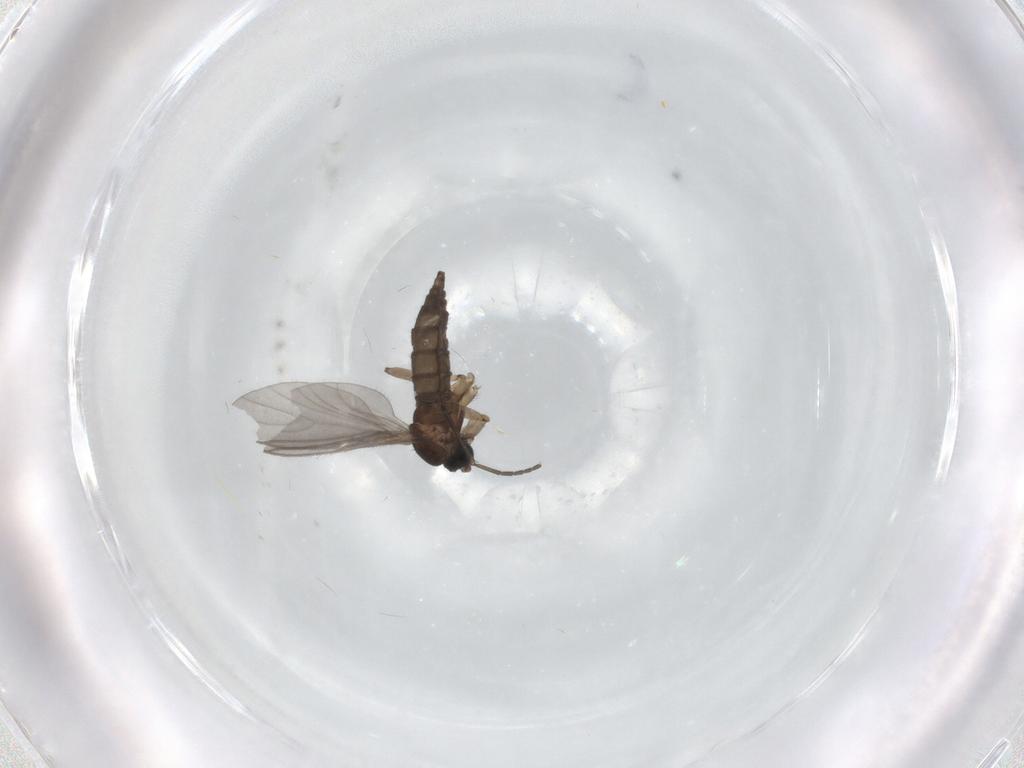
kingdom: Animalia
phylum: Arthropoda
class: Insecta
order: Diptera
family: Sciaridae
